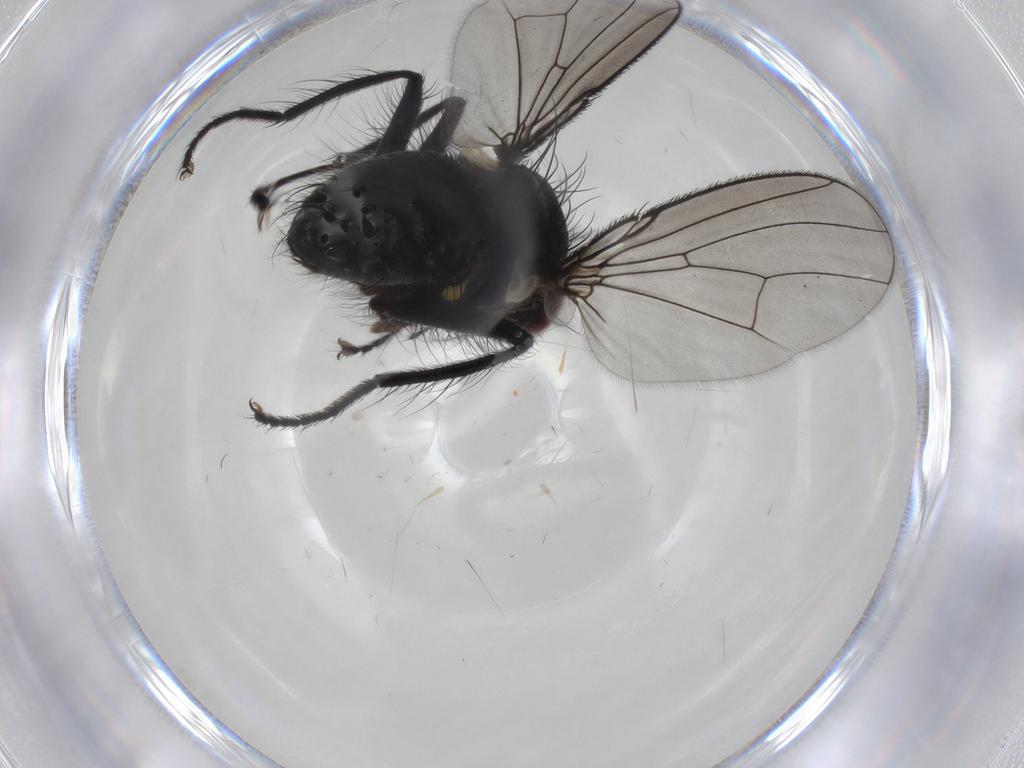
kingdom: Animalia
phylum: Arthropoda
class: Insecta
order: Diptera
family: Muscidae
